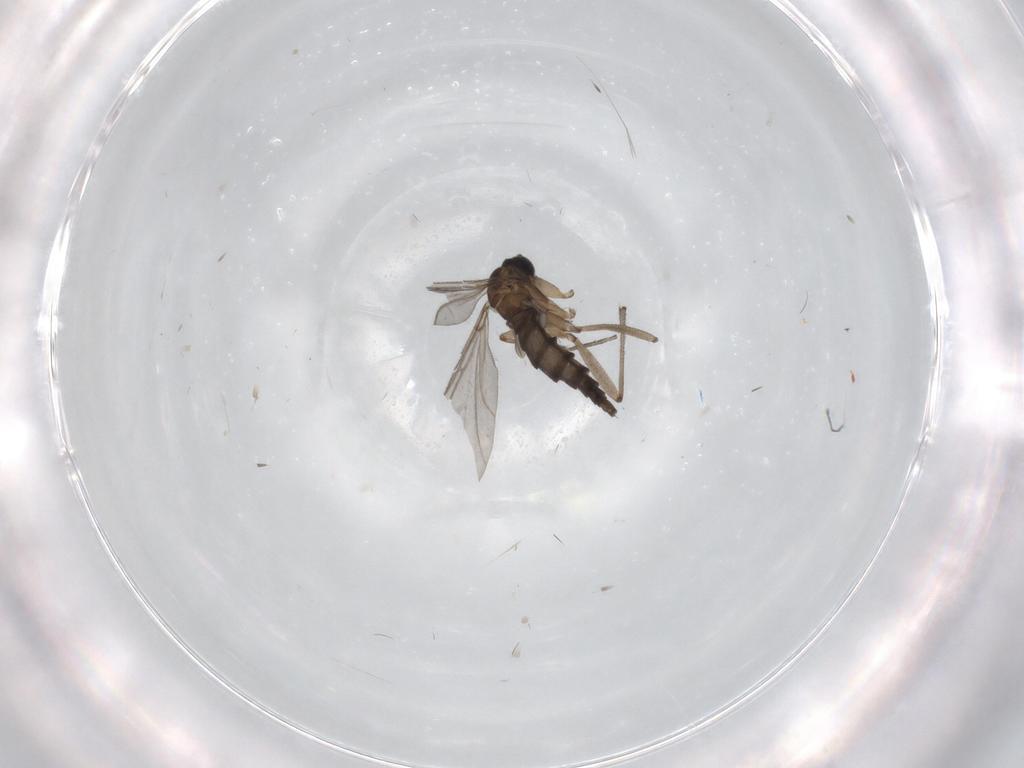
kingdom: Animalia
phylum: Arthropoda
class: Insecta
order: Diptera
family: Sciaridae
